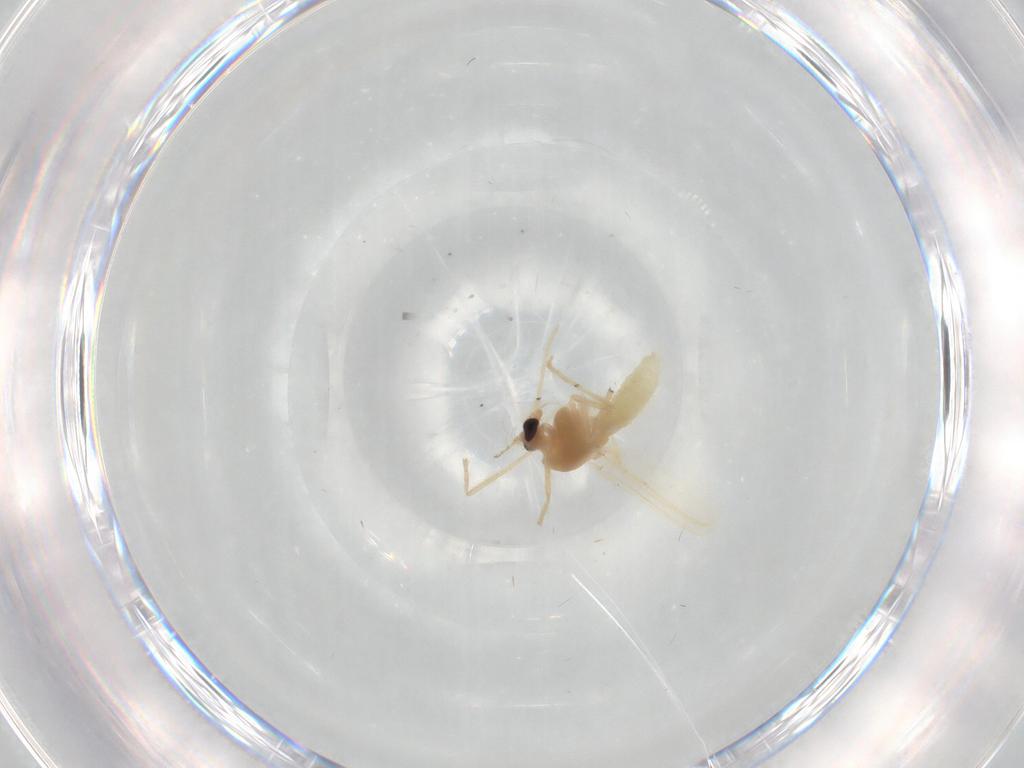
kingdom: Animalia
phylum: Arthropoda
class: Insecta
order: Diptera
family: Chironomidae
